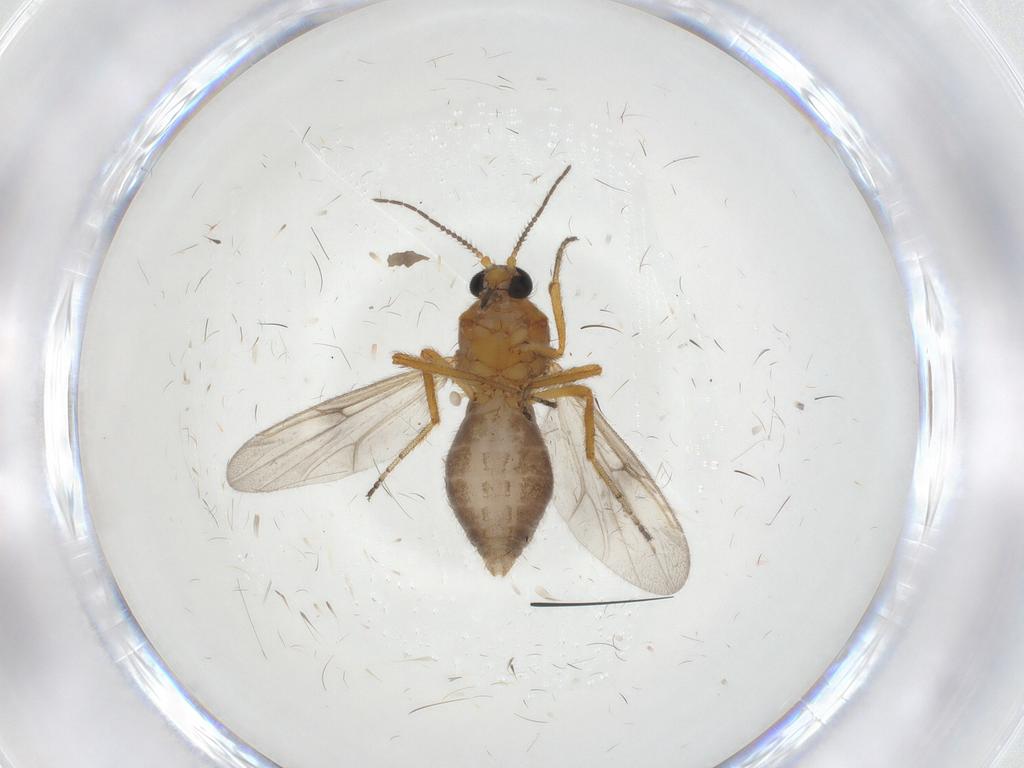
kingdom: Animalia
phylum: Arthropoda
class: Insecta
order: Diptera
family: Ceratopogonidae
